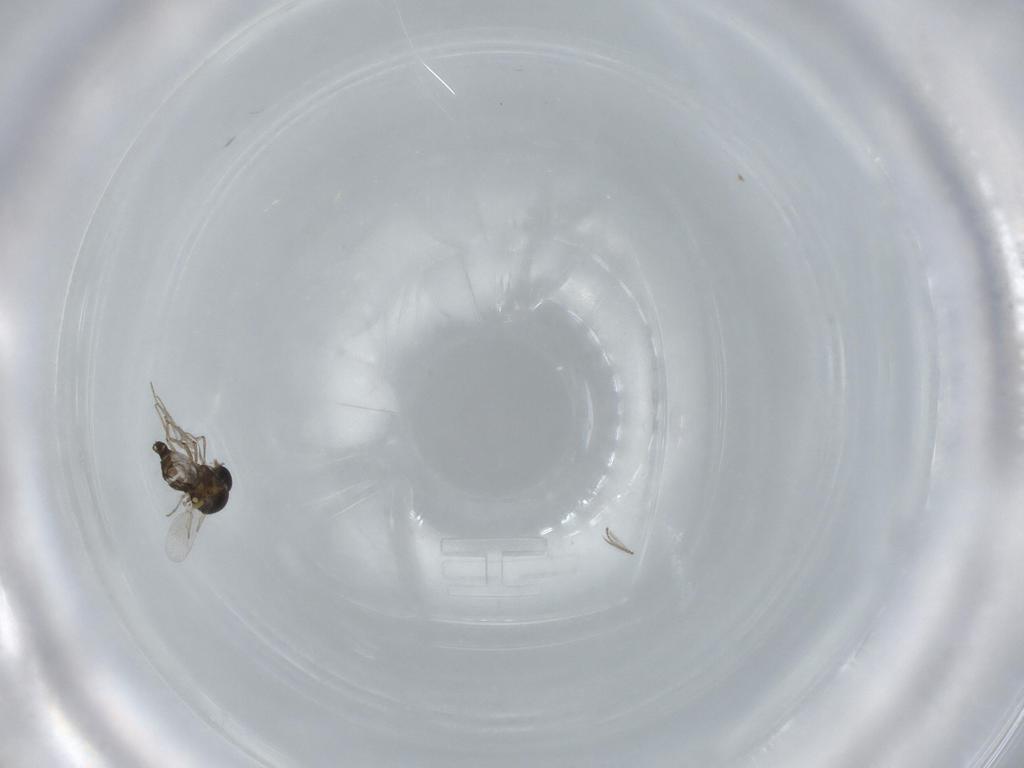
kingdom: Animalia
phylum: Arthropoda
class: Insecta
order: Diptera
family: Ceratopogonidae
